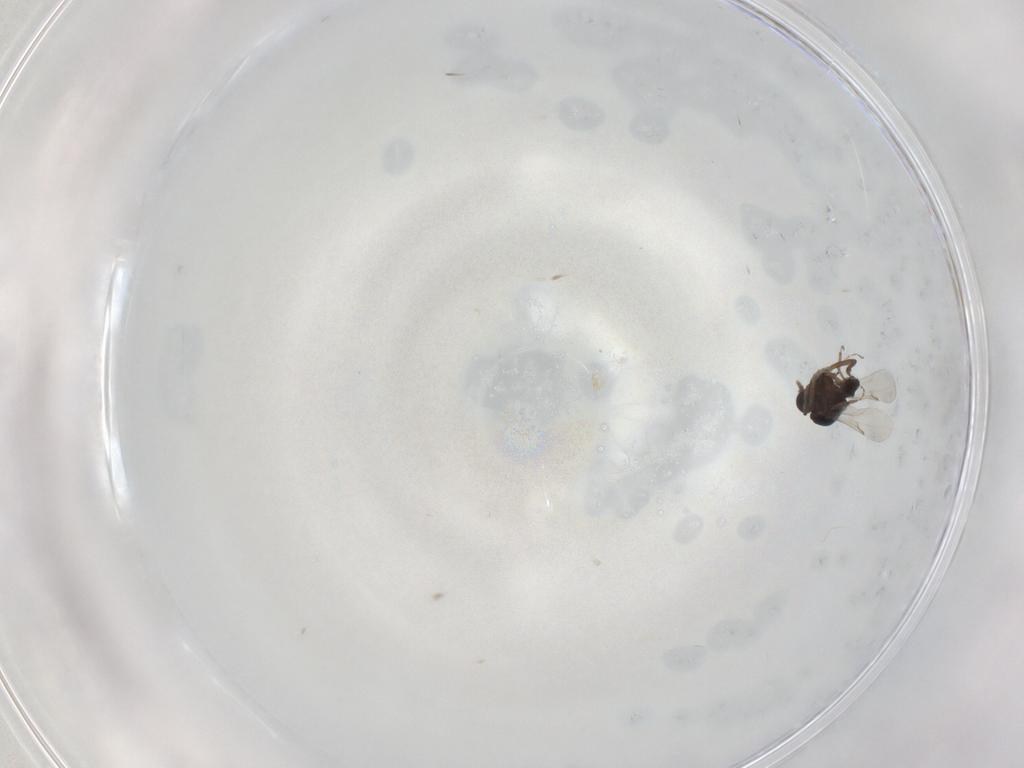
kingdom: Animalia
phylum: Arthropoda
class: Insecta
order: Diptera
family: Ceratopogonidae
